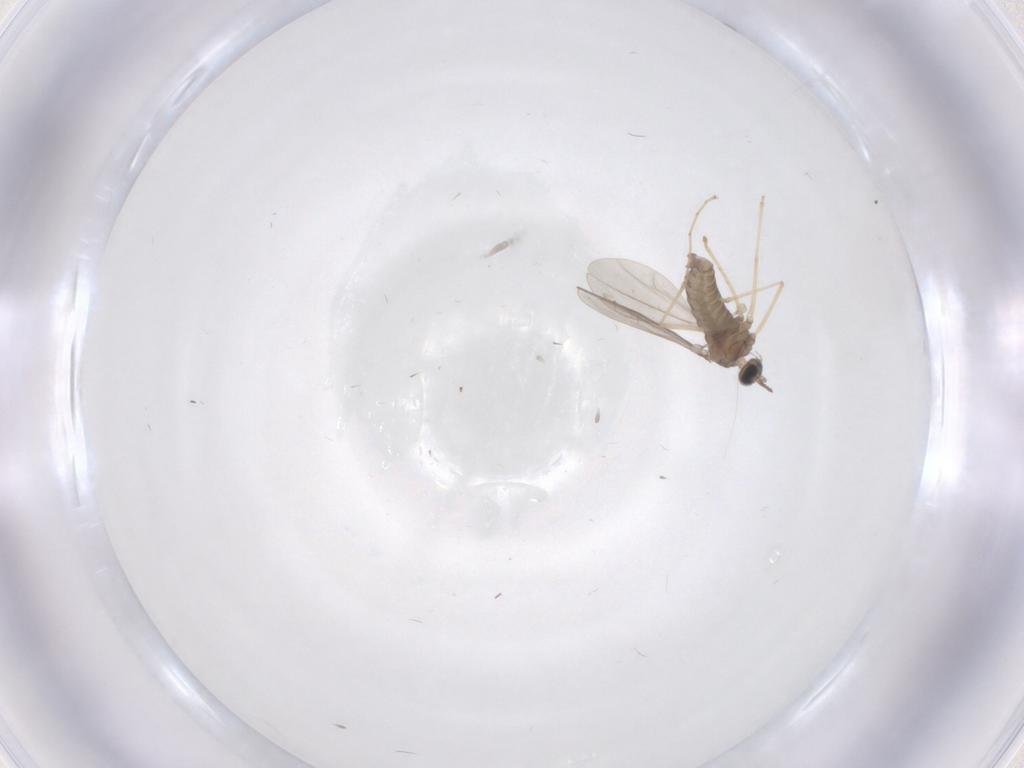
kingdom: Animalia
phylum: Arthropoda
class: Insecta
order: Diptera
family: Cecidomyiidae
